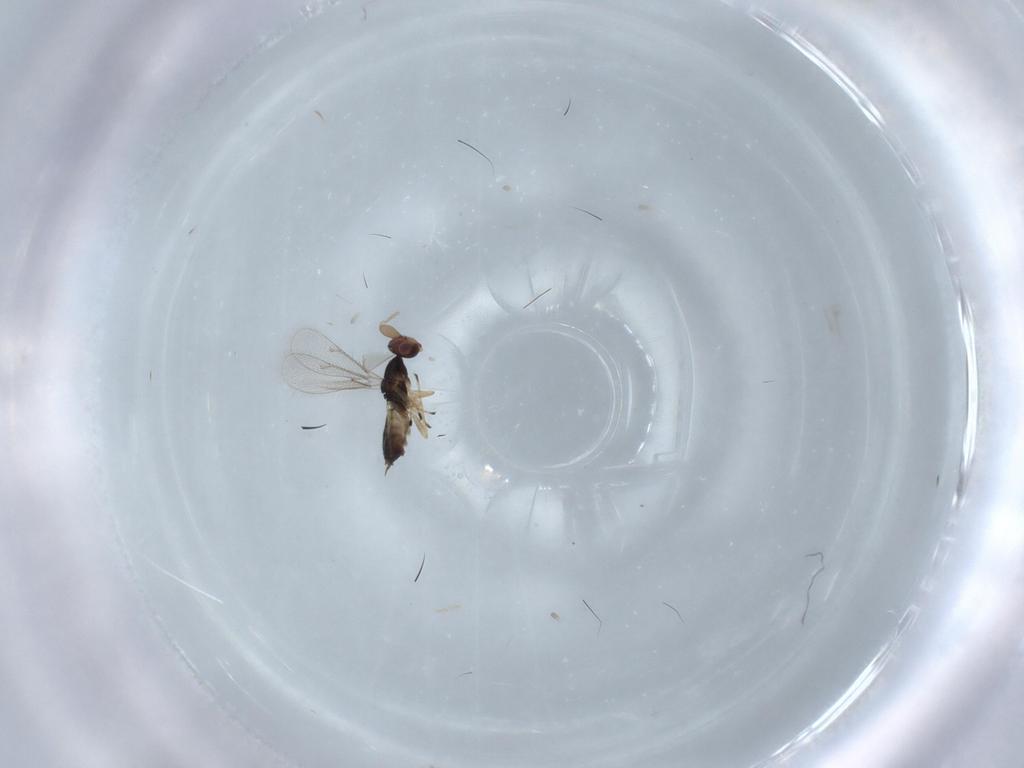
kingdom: Animalia
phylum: Arthropoda
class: Insecta
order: Hymenoptera
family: Eulophidae
